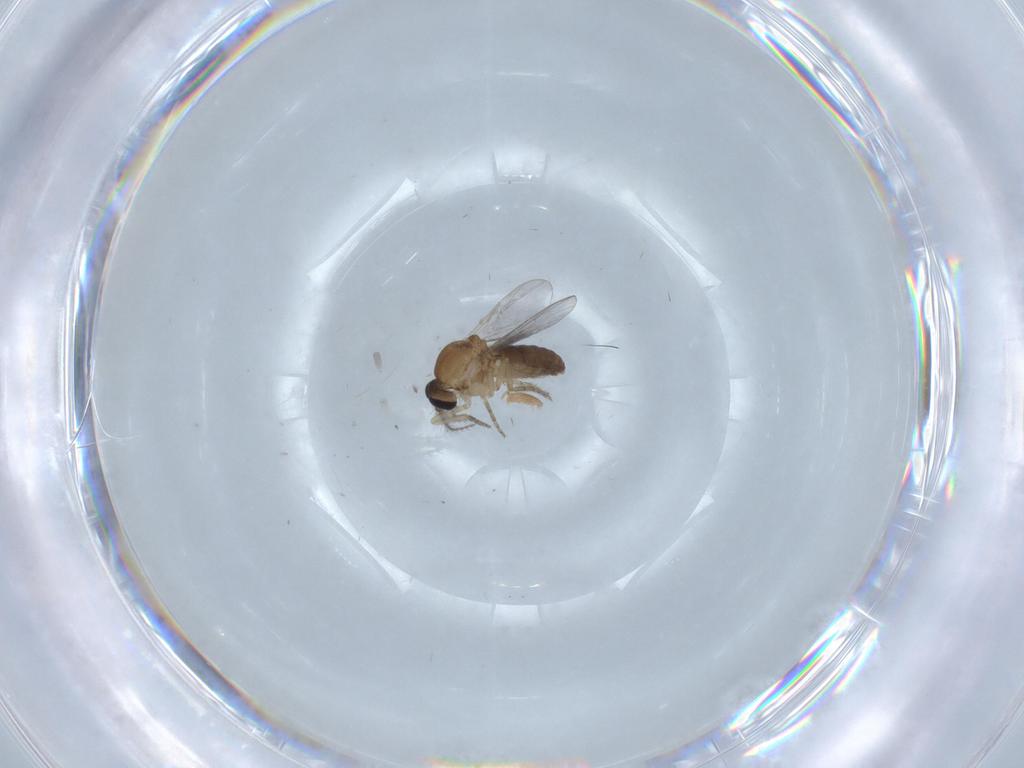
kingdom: Animalia
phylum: Arthropoda
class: Insecta
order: Diptera
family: Ceratopogonidae
